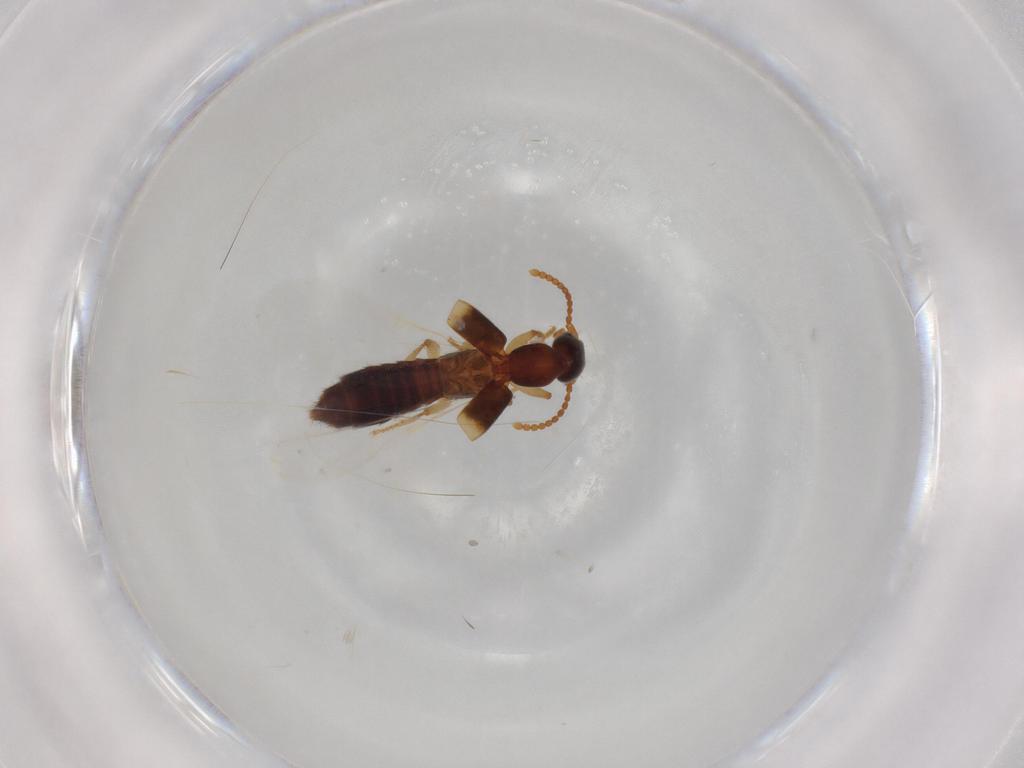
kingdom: Animalia
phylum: Arthropoda
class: Insecta
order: Coleoptera
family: Staphylinidae
